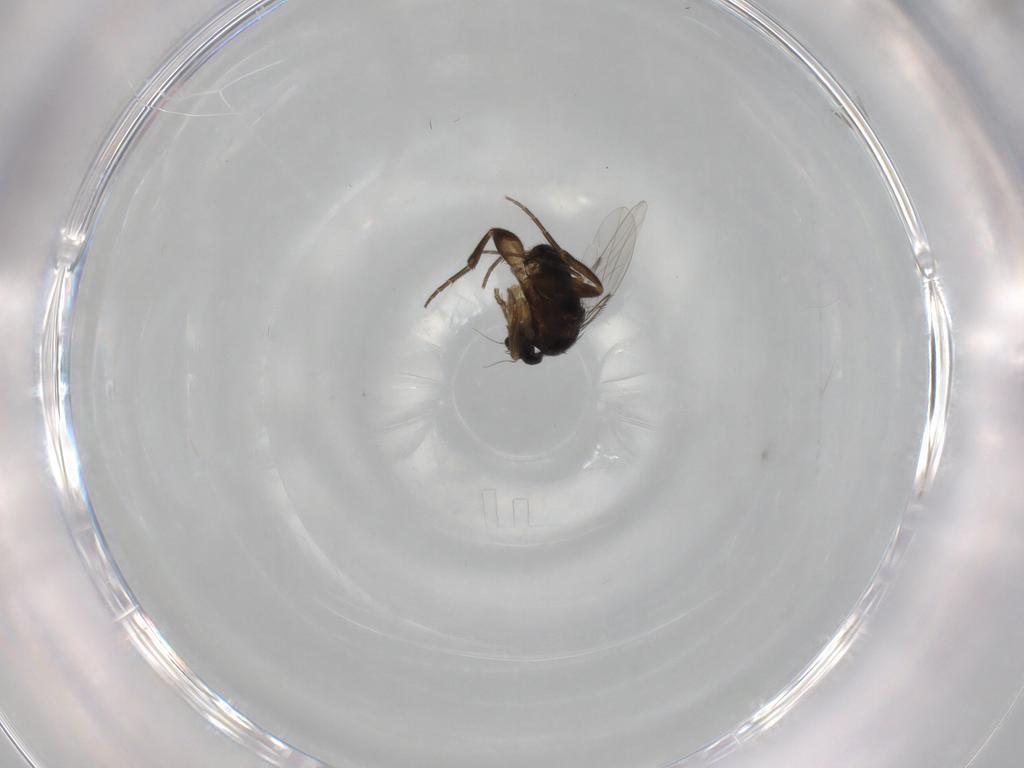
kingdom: Animalia
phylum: Arthropoda
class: Insecta
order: Diptera
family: Phoridae
